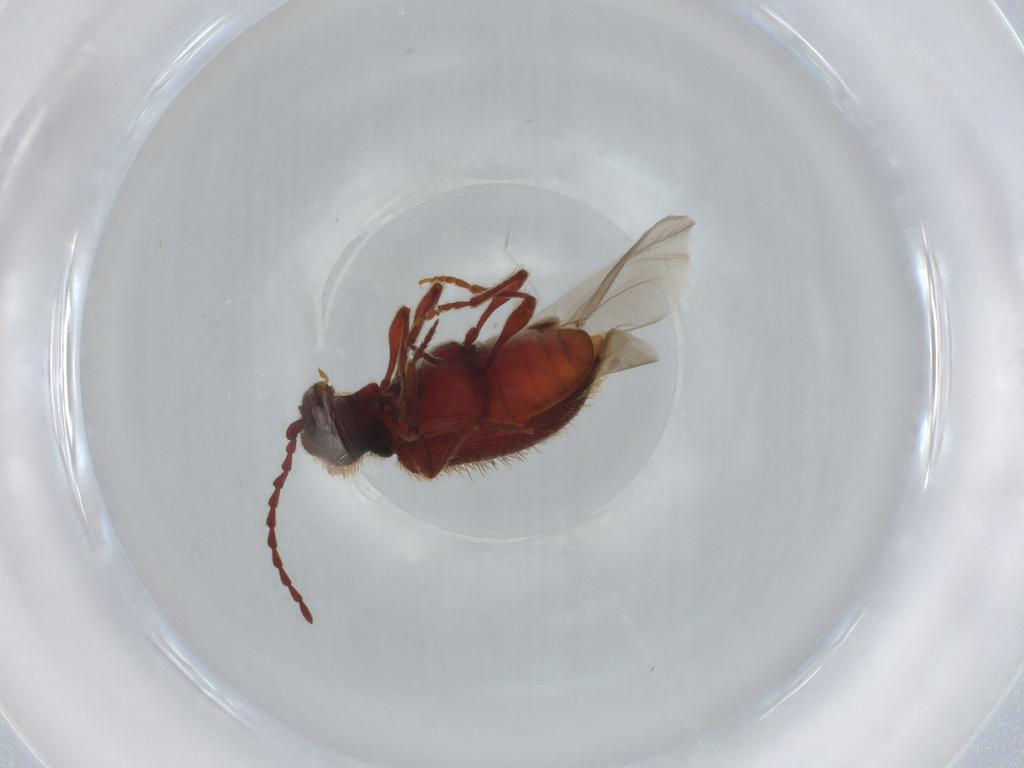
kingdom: Animalia
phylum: Arthropoda
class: Insecta
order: Coleoptera
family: Ptinidae
